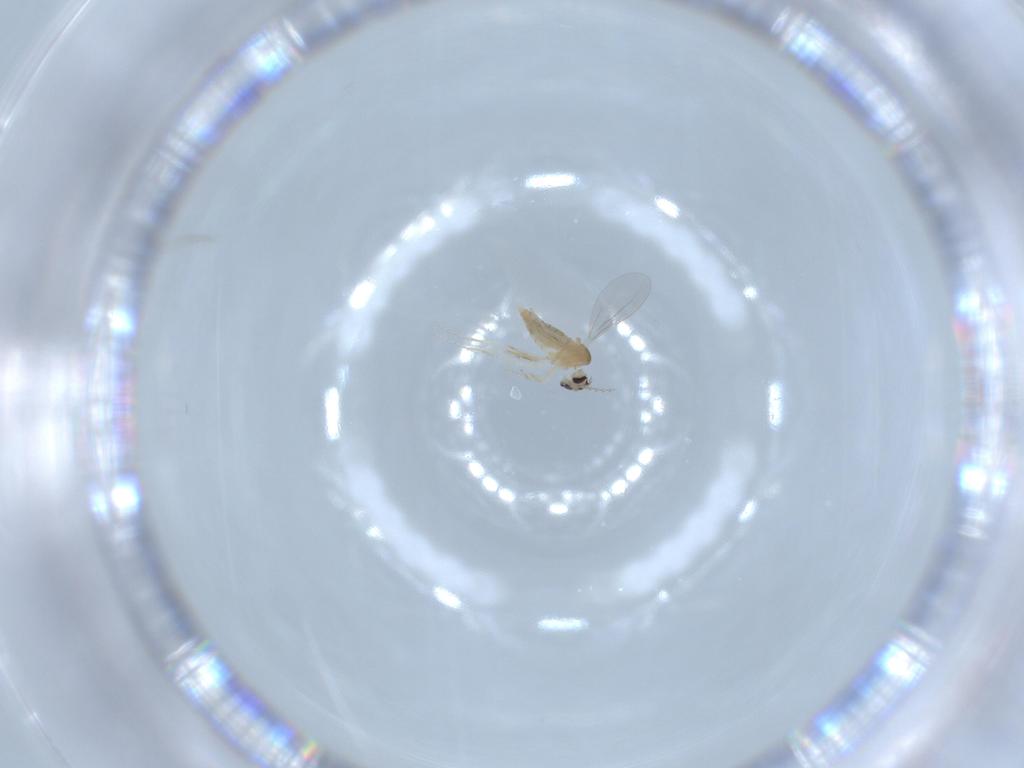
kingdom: Animalia
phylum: Arthropoda
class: Insecta
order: Diptera
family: Cecidomyiidae
